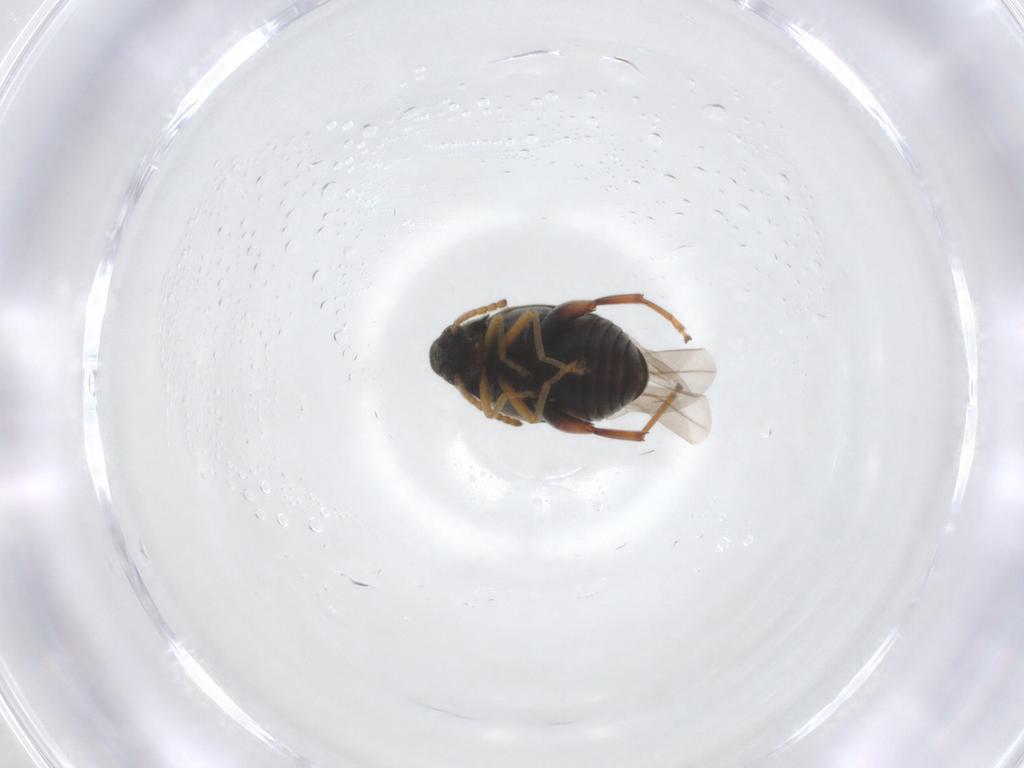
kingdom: Animalia
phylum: Arthropoda
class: Insecta
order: Coleoptera
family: Chrysomelidae
